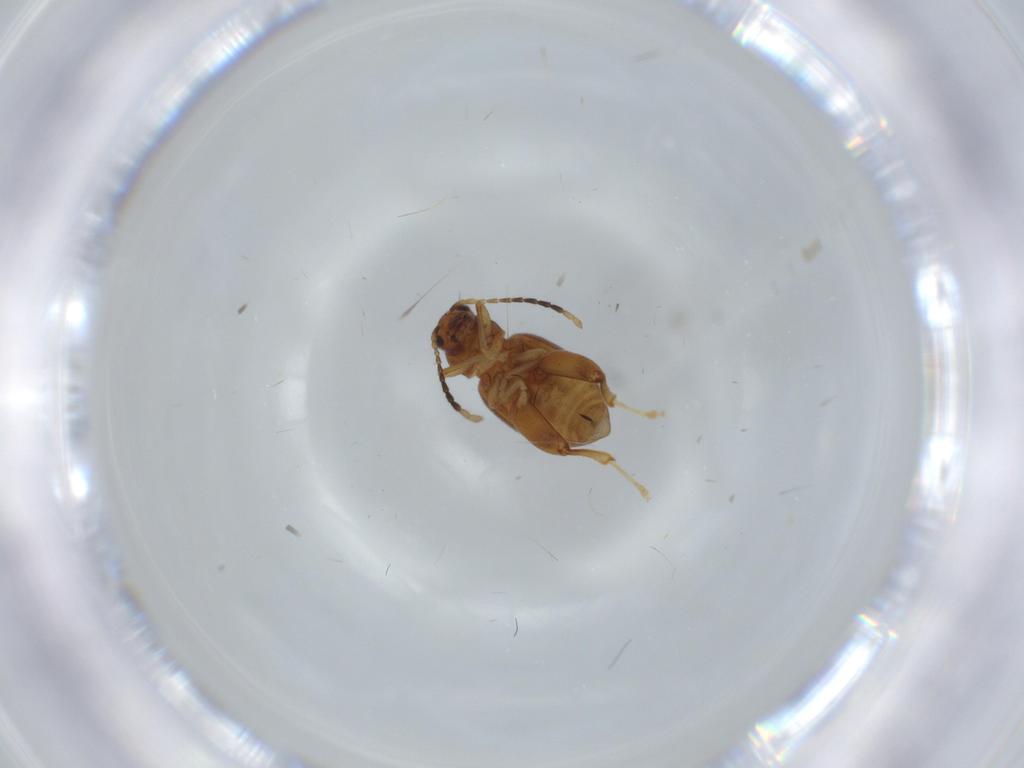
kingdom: Animalia
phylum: Arthropoda
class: Insecta
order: Coleoptera
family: Chrysomelidae
